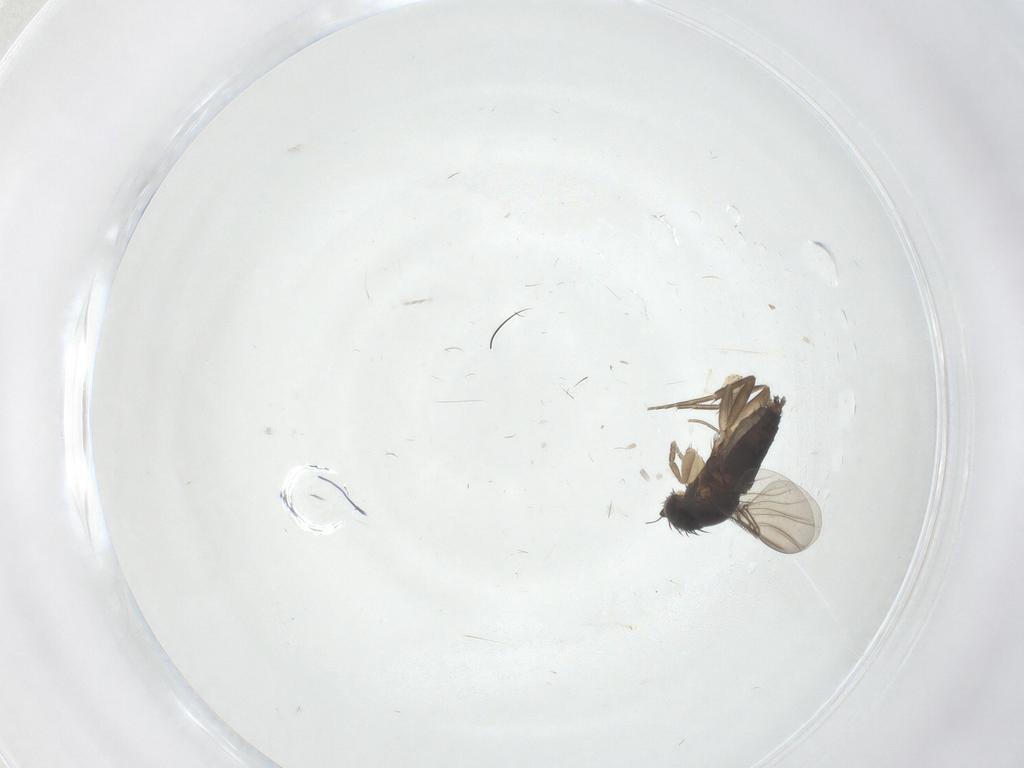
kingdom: Animalia
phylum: Arthropoda
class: Insecta
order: Diptera
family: Phoridae
